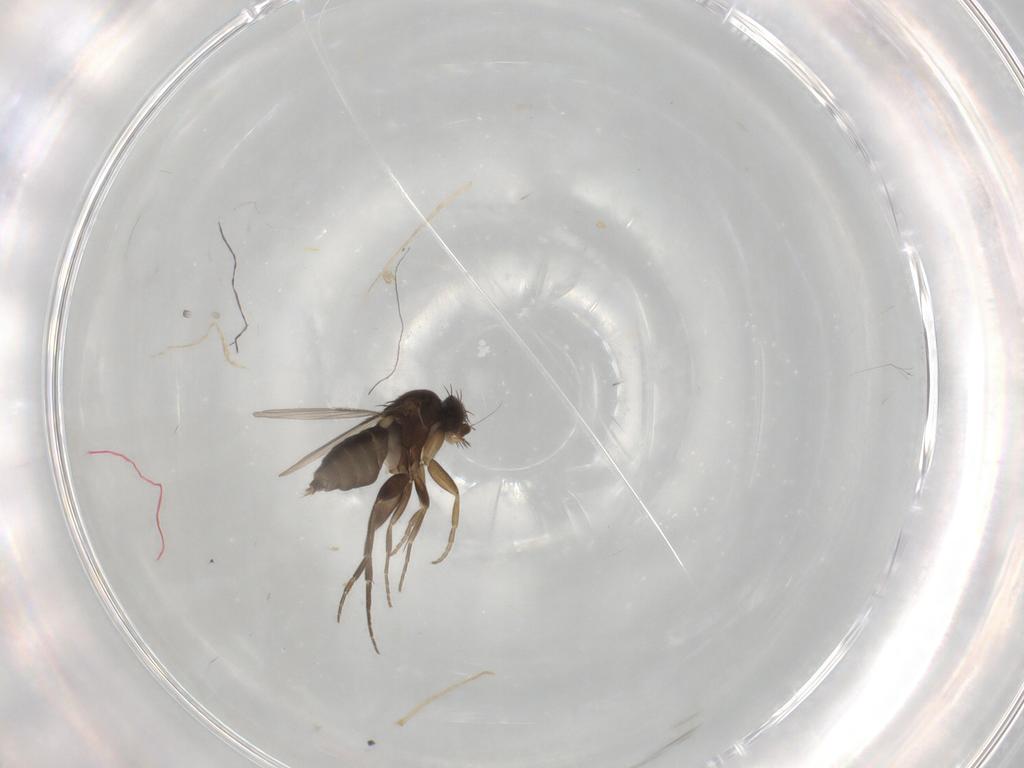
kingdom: Animalia
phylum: Arthropoda
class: Insecta
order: Diptera
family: Phoridae
